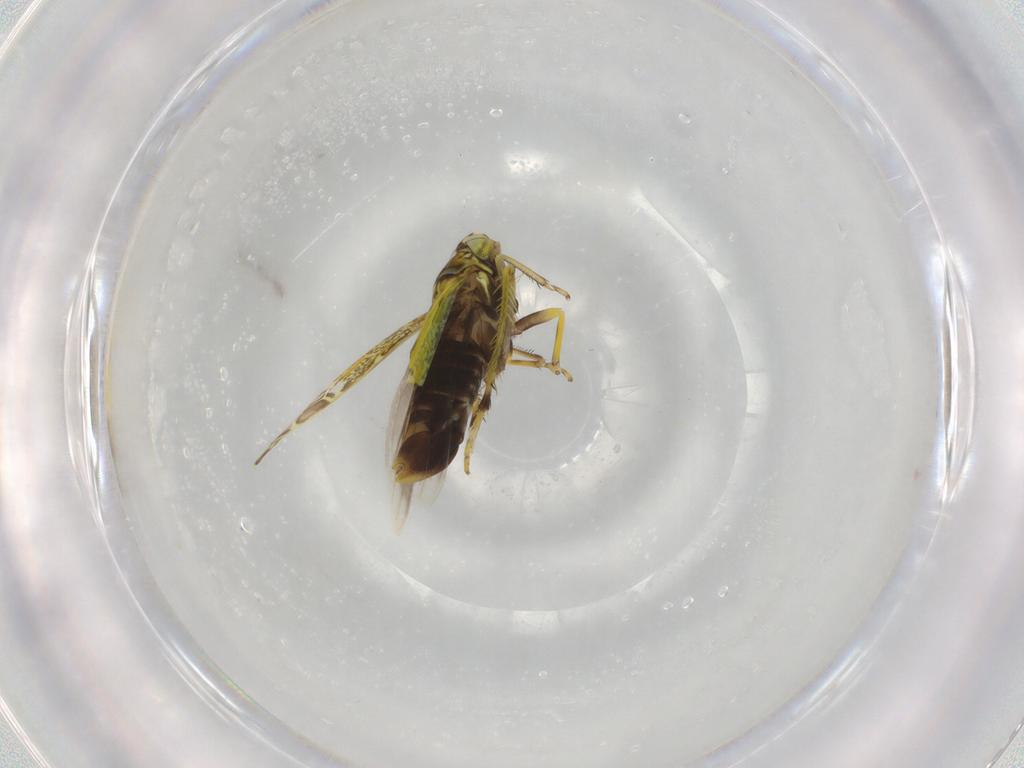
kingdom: Animalia
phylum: Arthropoda
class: Insecta
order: Hemiptera
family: Cicadellidae
